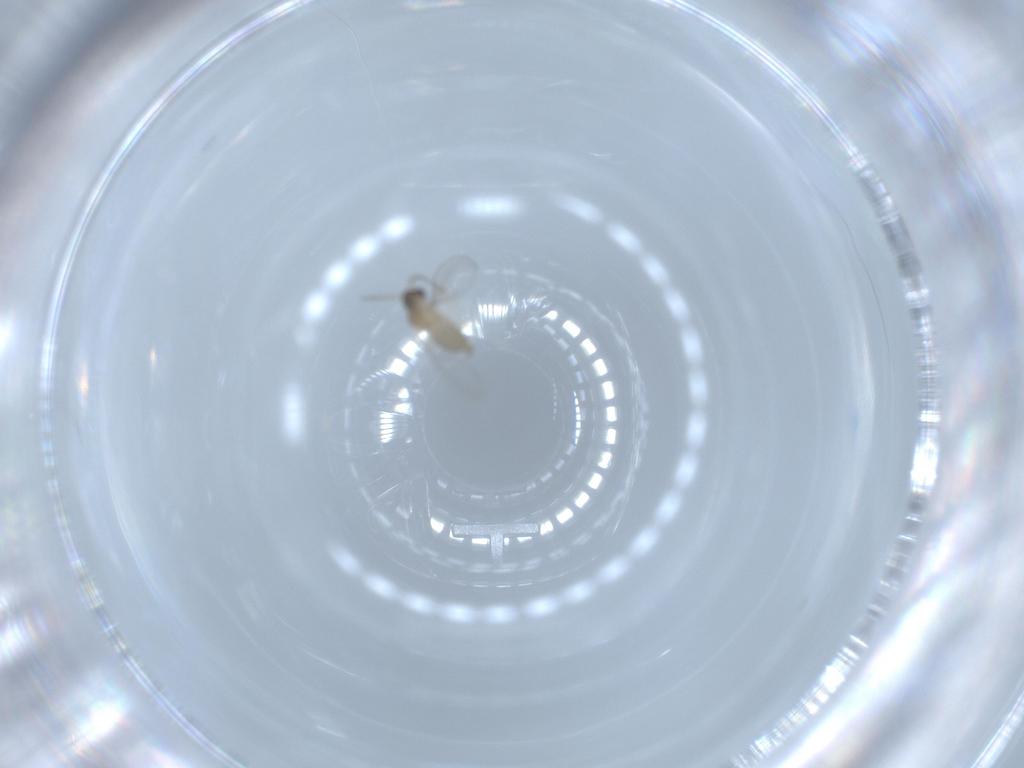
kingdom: Animalia
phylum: Arthropoda
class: Insecta
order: Diptera
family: Cecidomyiidae
